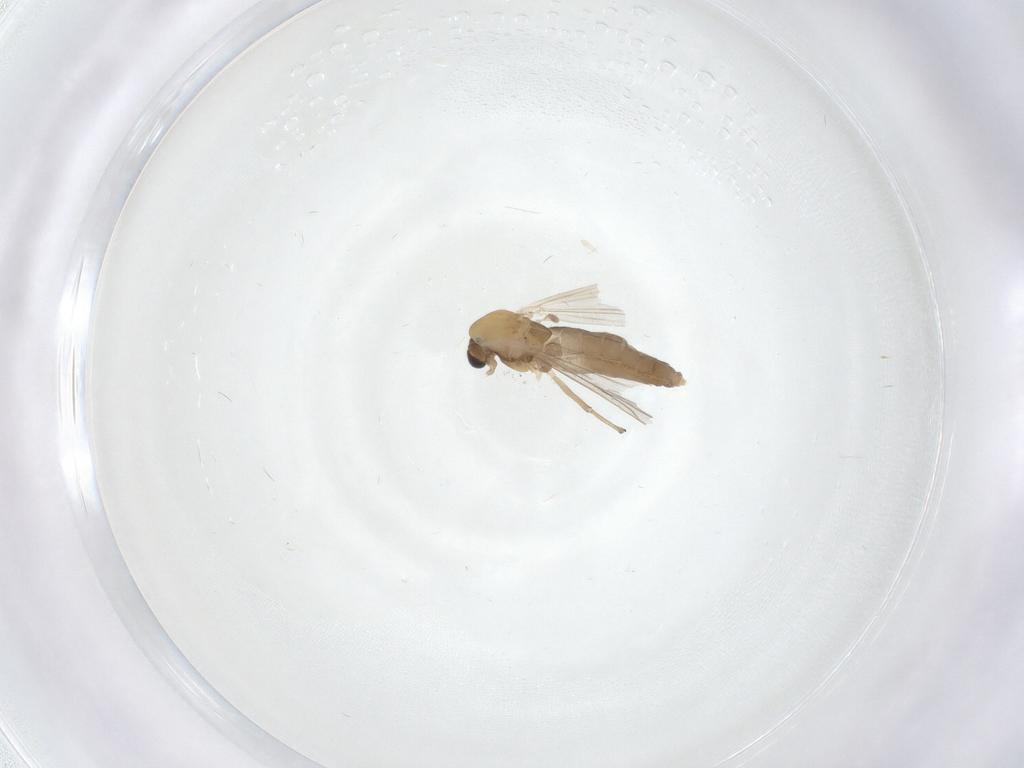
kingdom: Animalia
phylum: Arthropoda
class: Insecta
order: Diptera
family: Chironomidae
